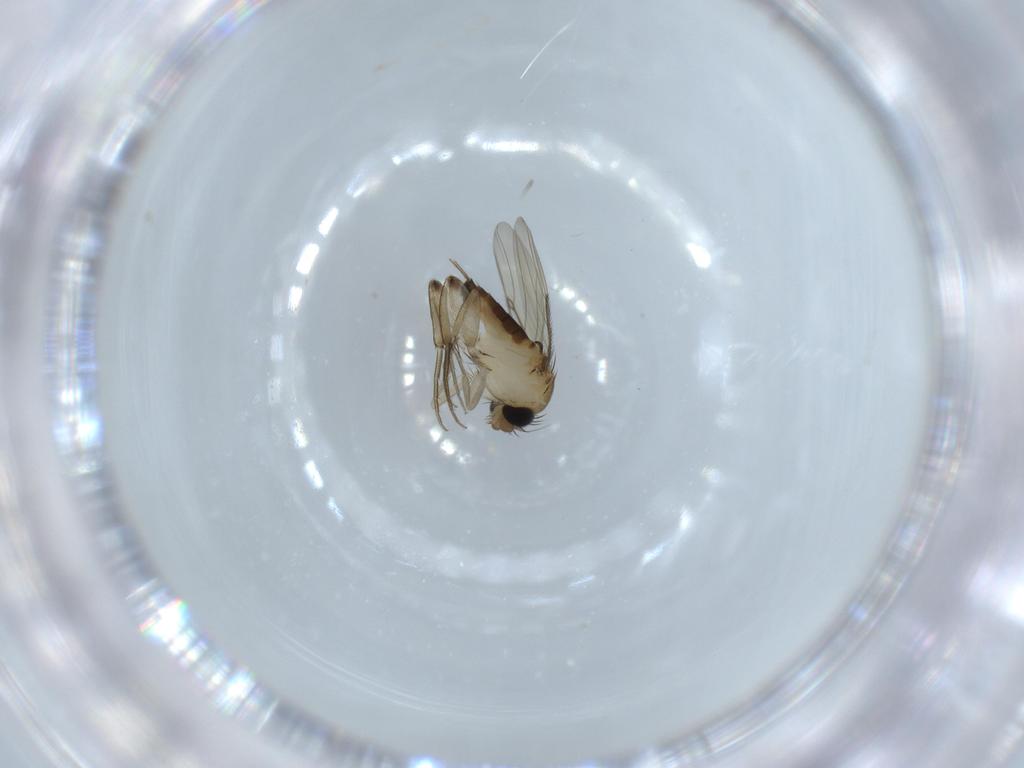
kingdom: Animalia
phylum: Arthropoda
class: Insecta
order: Diptera
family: Phoridae
